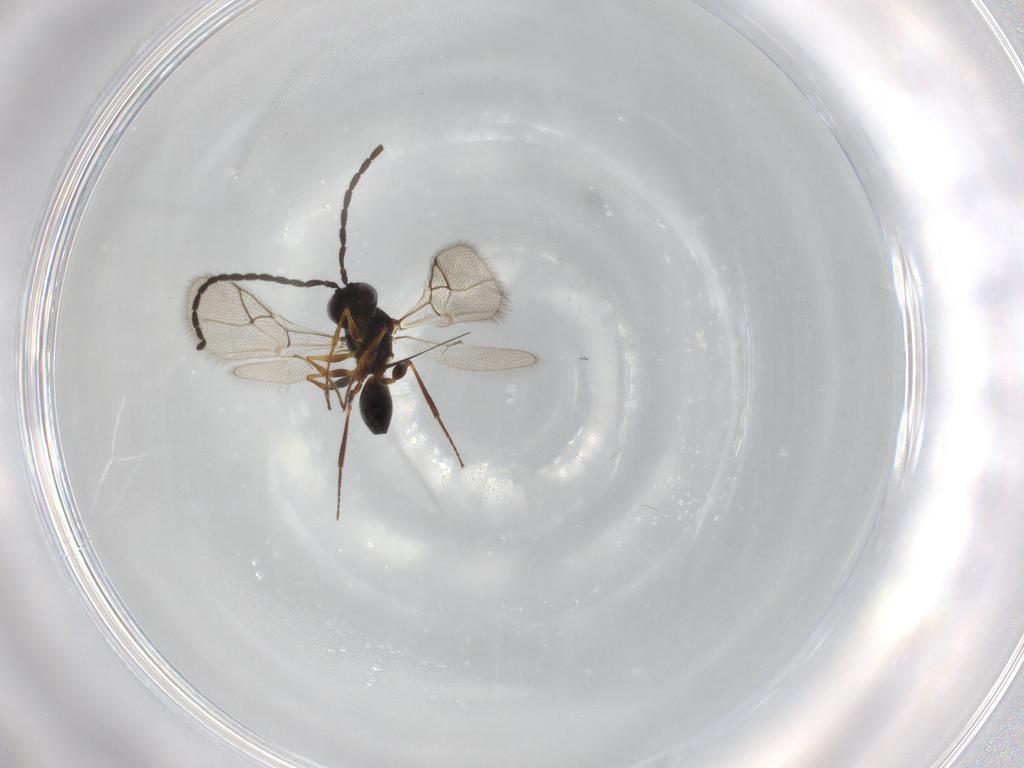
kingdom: Animalia
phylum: Arthropoda
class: Insecta
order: Hymenoptera
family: Figitidae
